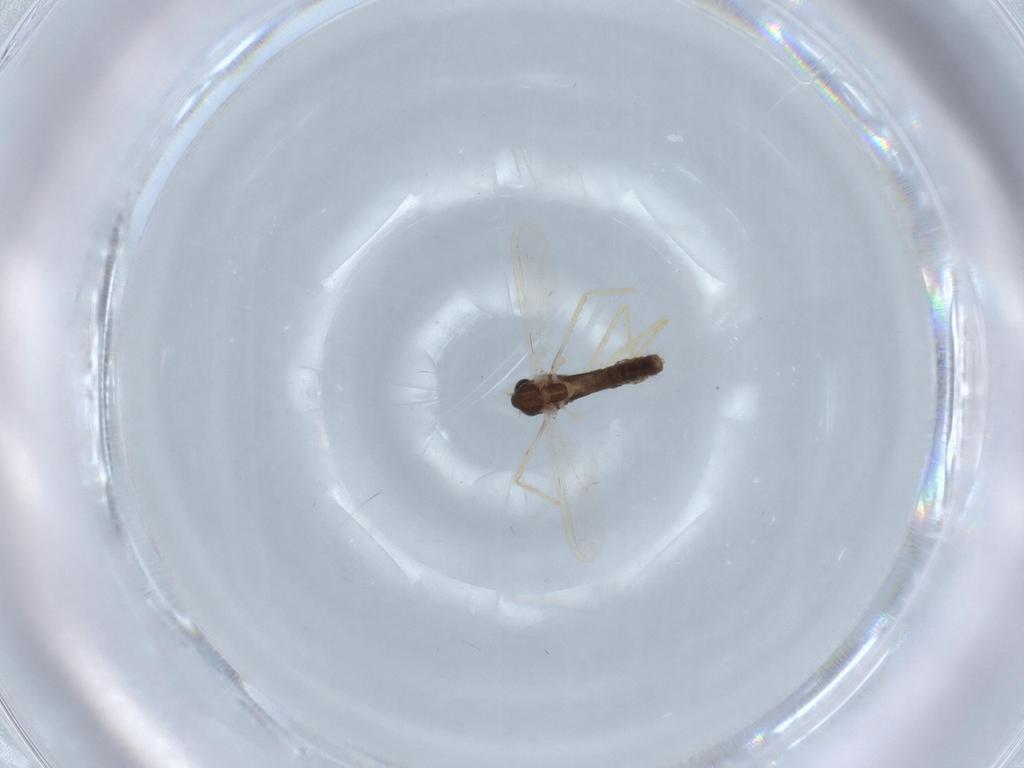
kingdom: Animalia
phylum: Arthropoda
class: Insecta
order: Diptera
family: Chironomidae
